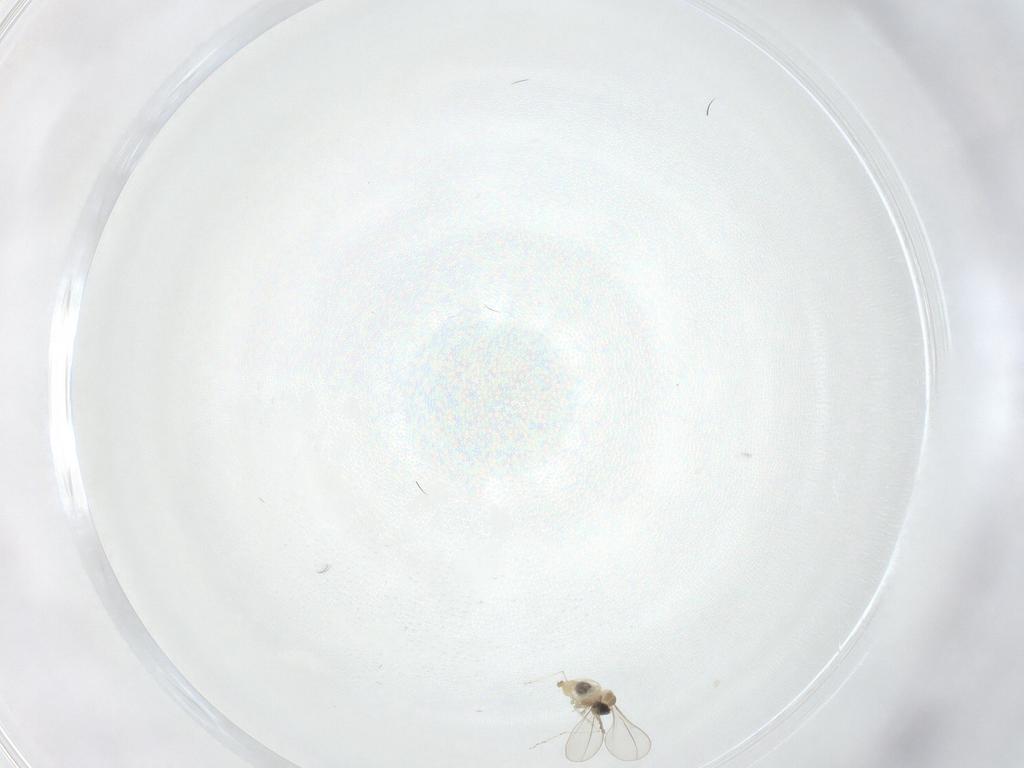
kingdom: Animalia
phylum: Arthropoda
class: Insecta
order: Diptera
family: Cecidomyiidae
